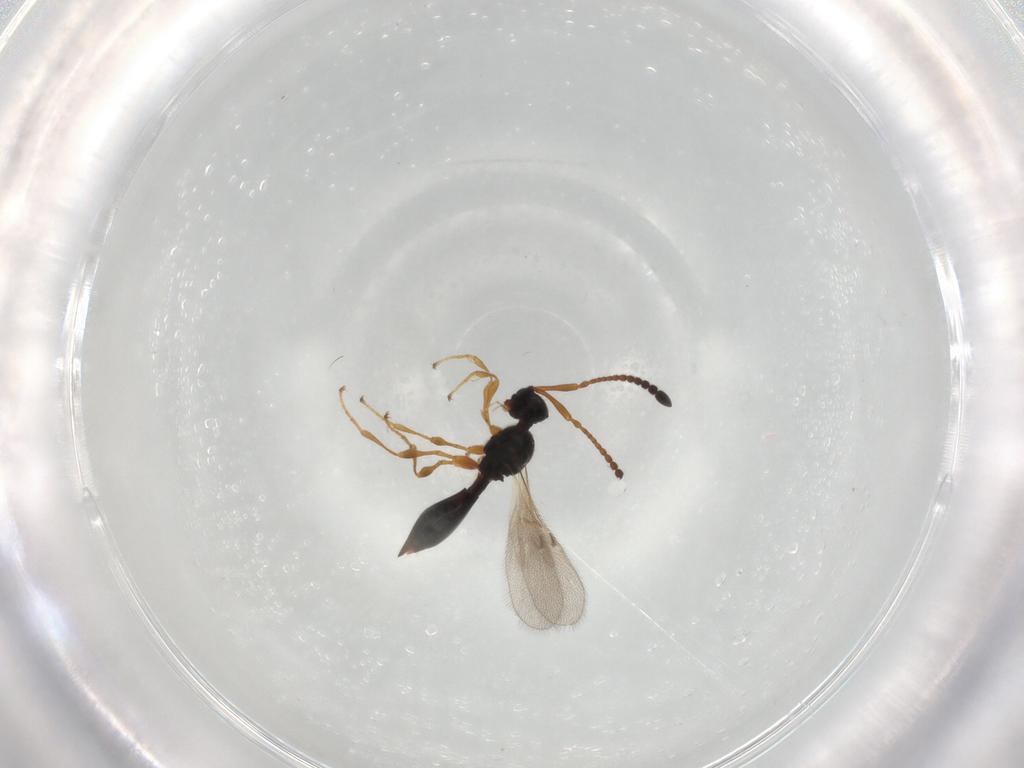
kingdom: Animalia
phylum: Arthropoda
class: Insecta
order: Hymenoptera
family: Diapriidae
